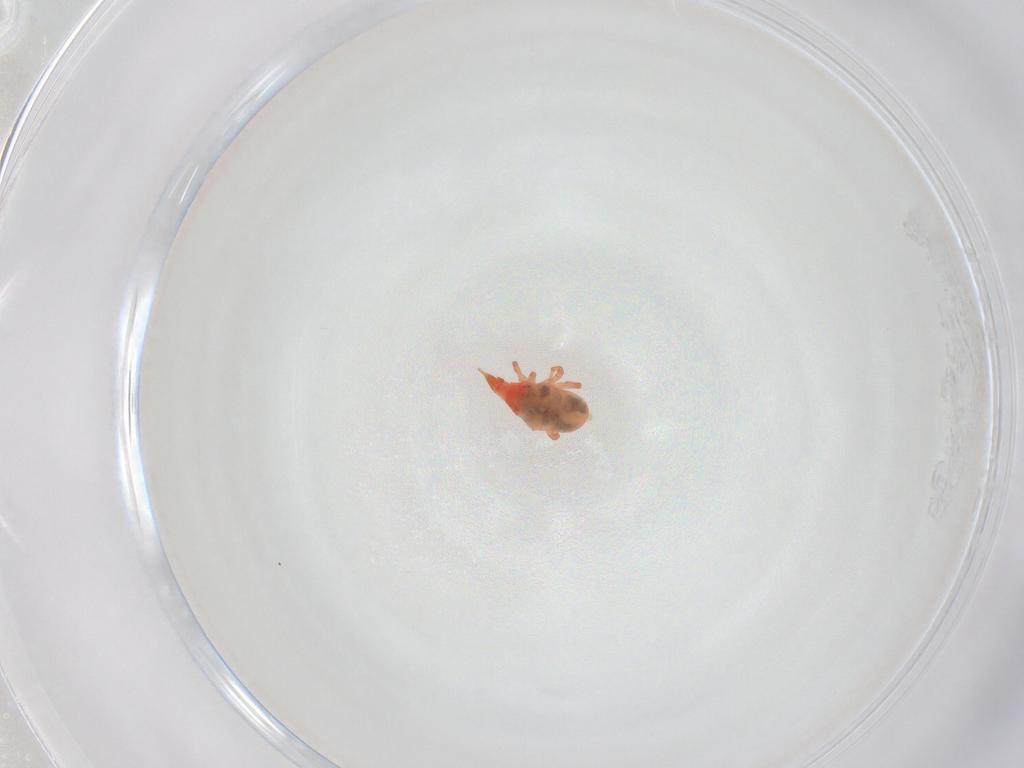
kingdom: Animalia
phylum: Arthropoda
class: Arachnida
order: Trombidiformes
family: Bdellidae
